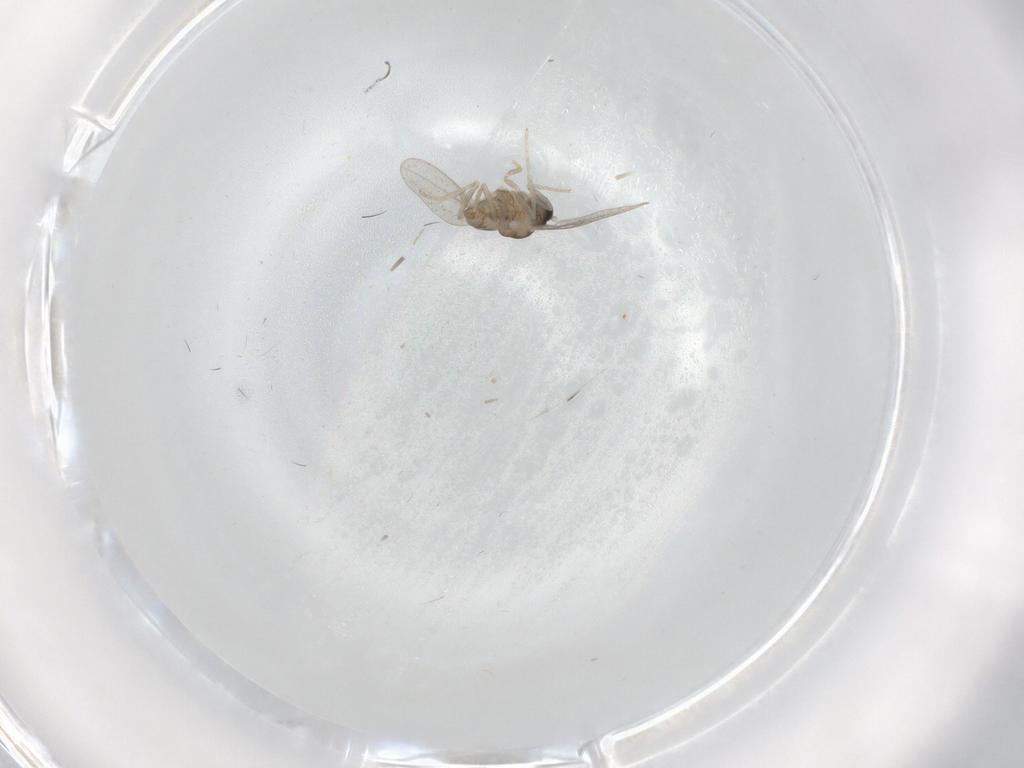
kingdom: Animalia
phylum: Arthropoda
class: Insecta
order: Diptera
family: Cecidomyiidae
